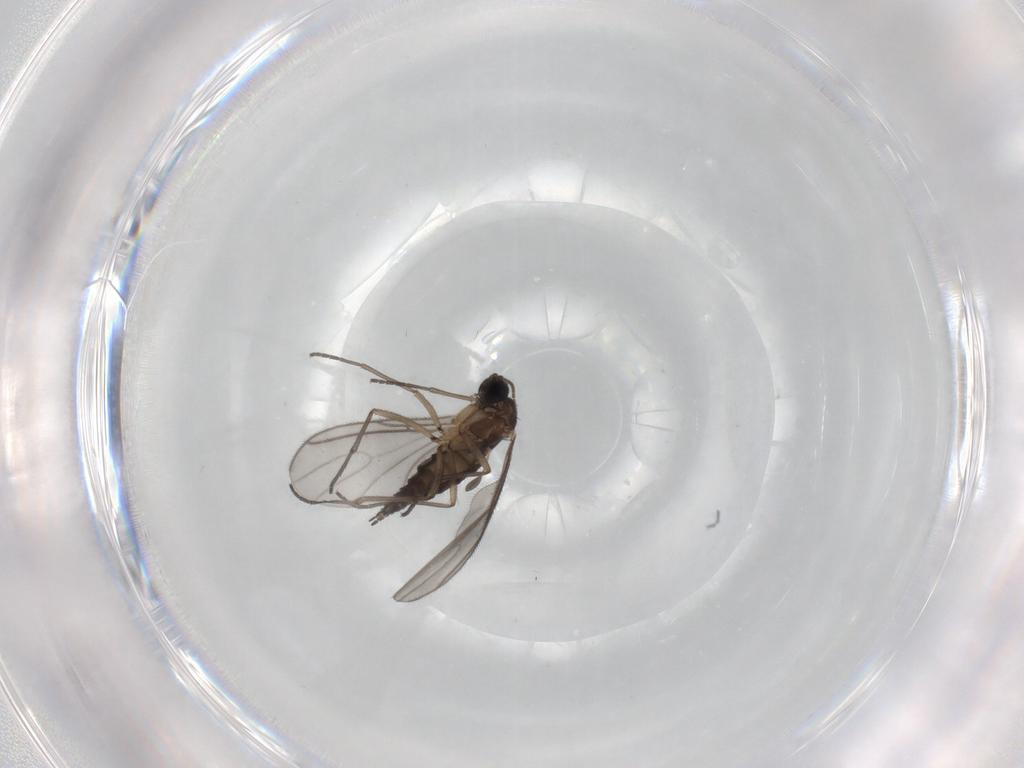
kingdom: Animalia
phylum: Arthropoda
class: Insecta
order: Diptera
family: Sciaridae
